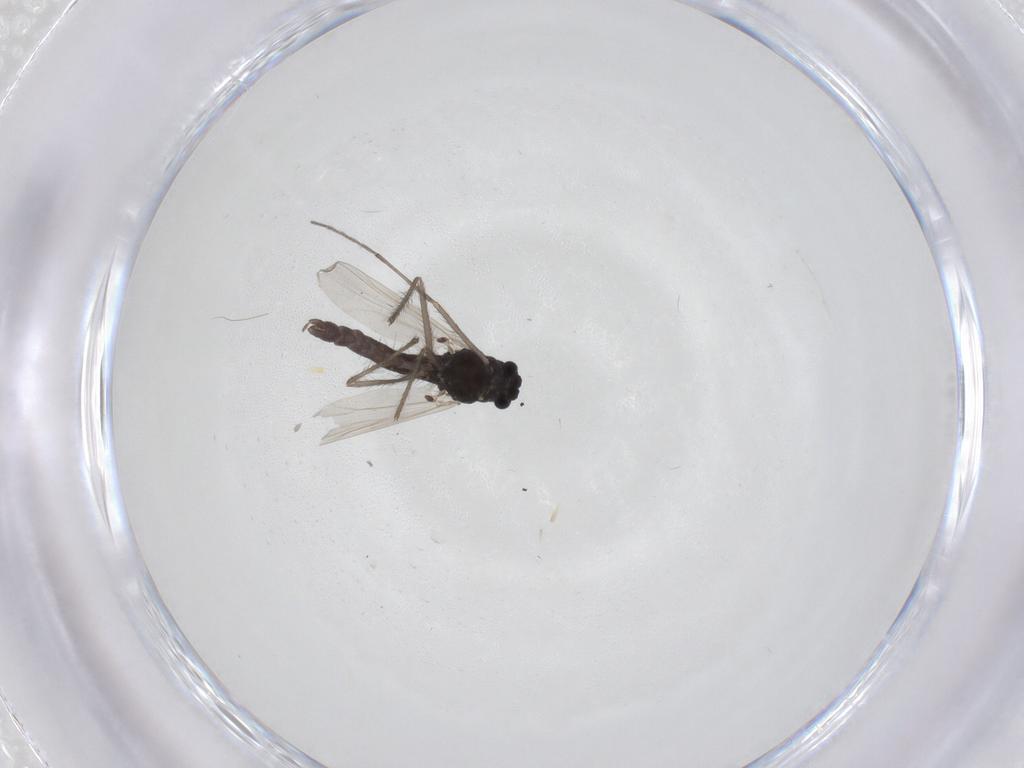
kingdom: Animalia
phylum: Arthropoda
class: Insecta
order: Diptera
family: Chironomidae
